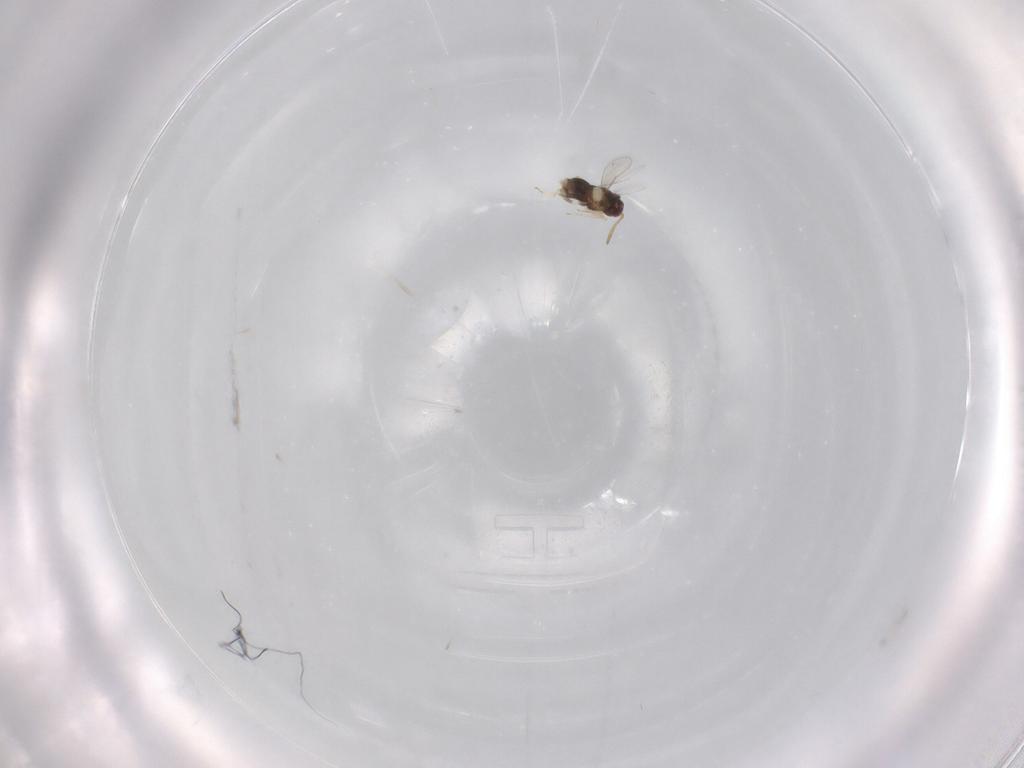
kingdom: Animalia
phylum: Arthropoda
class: Insecta
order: Hymenoptera
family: Aphelinidae
